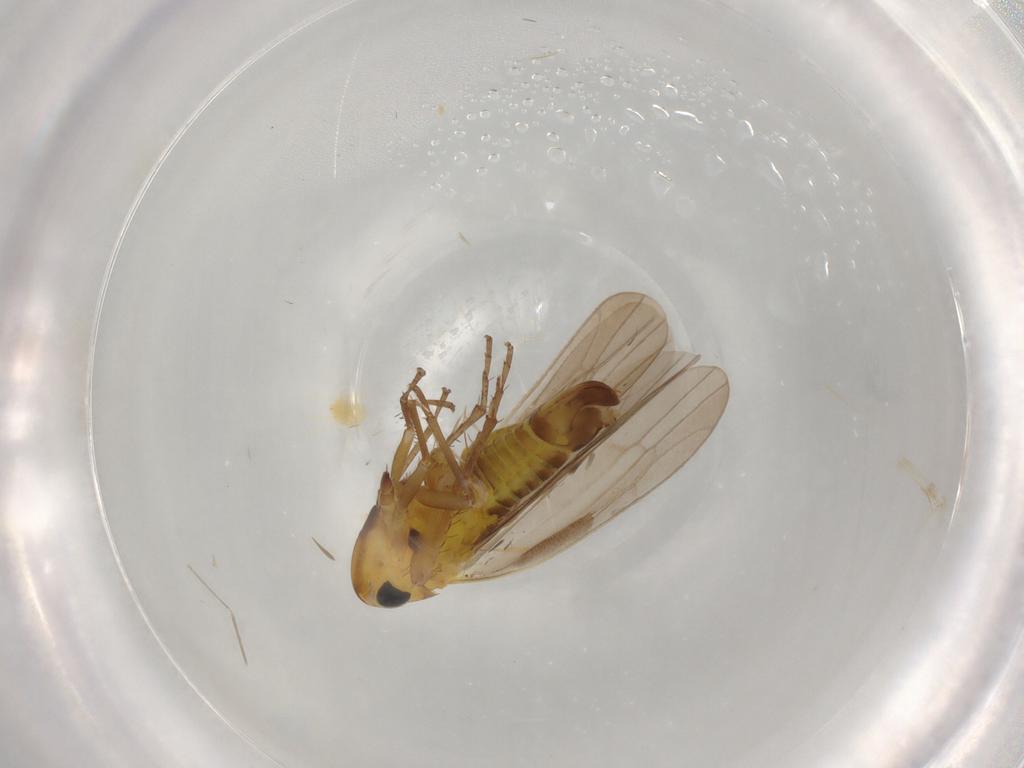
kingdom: Animalia
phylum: Arthropoda
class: Insecta
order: Hemiptera
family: Cicadellidae
